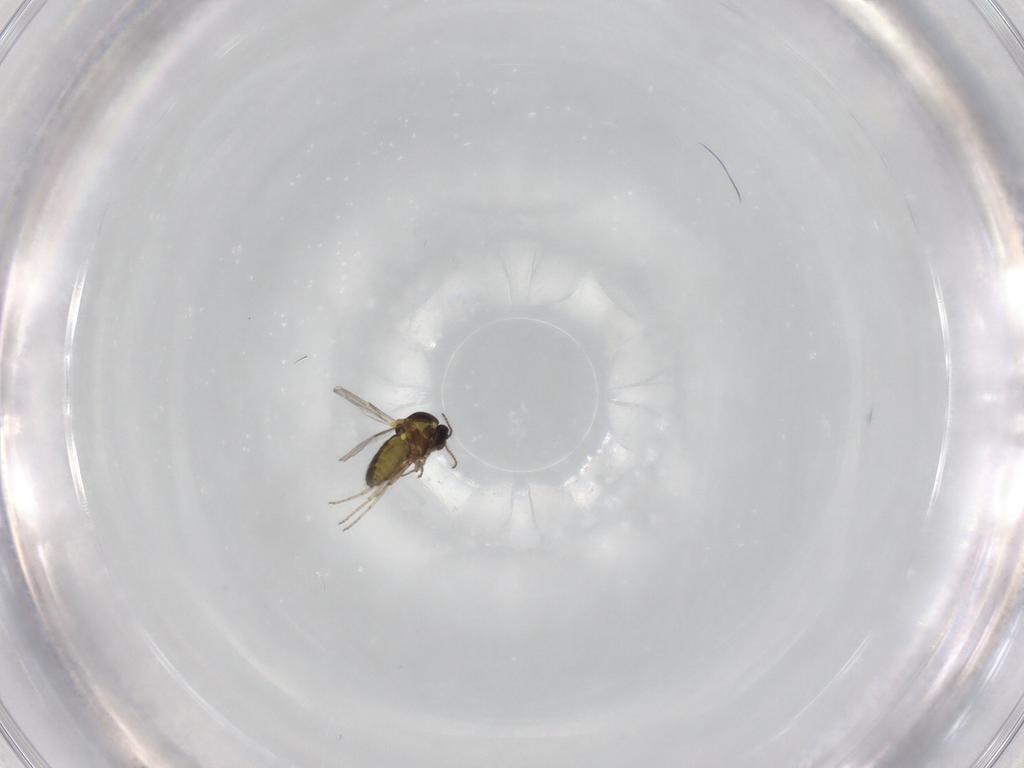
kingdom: Animalia
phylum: Arthropoda
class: Insecta
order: Diptera
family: Ceratopogonidae
